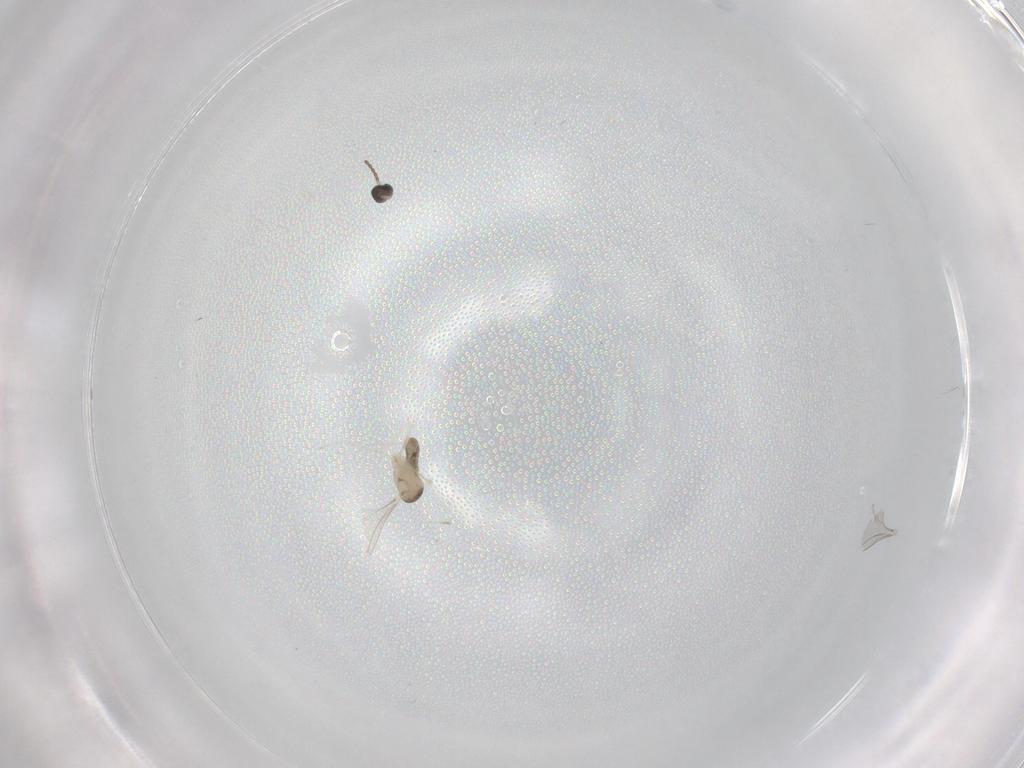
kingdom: Animalia
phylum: Arthropoda
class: Insecta
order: Diptera
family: Cecidomyiidae
